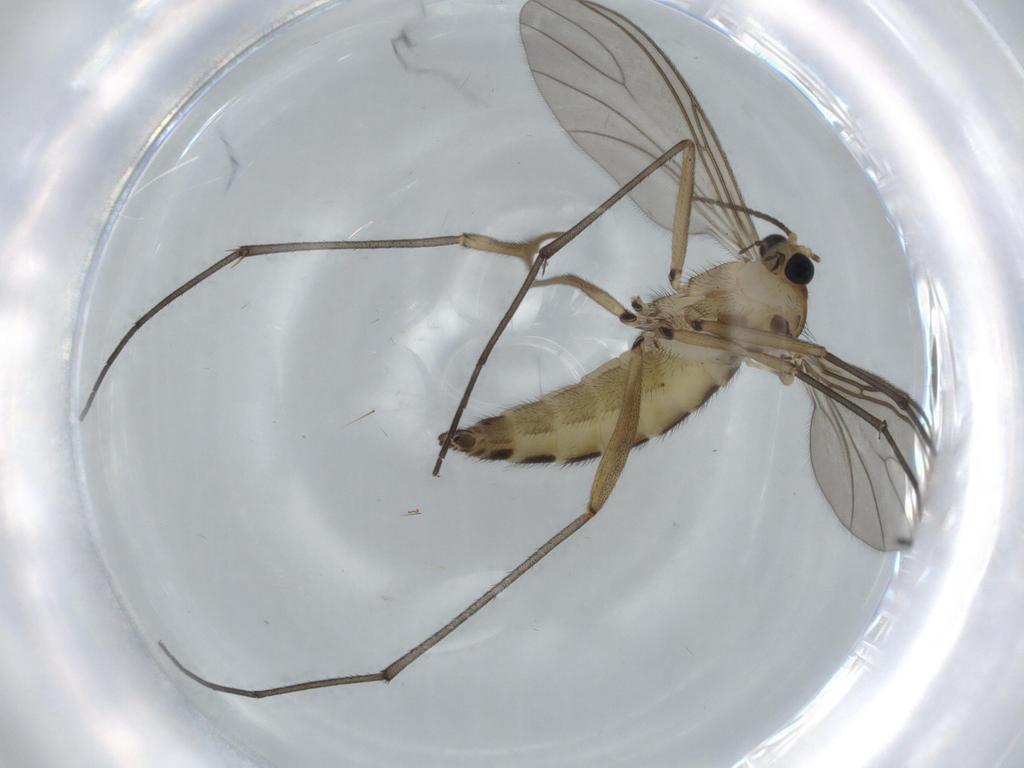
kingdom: Animalia
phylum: Arthropoda
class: Insecta
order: Diptera
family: Sciaridae
